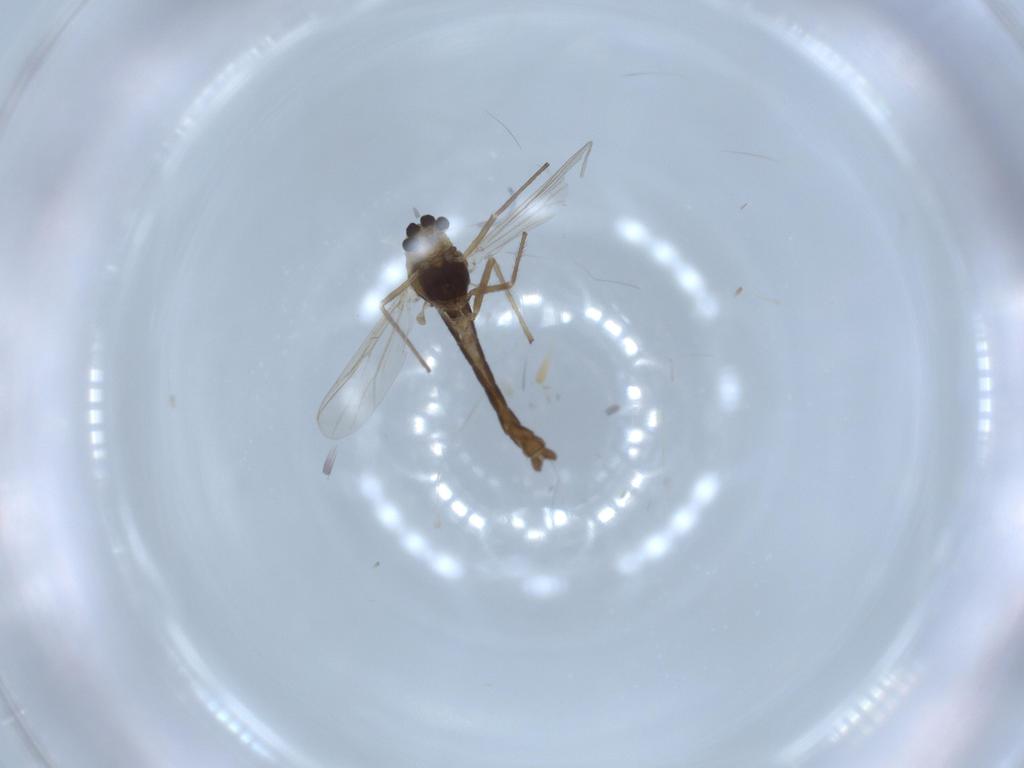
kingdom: Animalia
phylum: Arthropoda
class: Insecta
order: Diptera
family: Chironomidae
